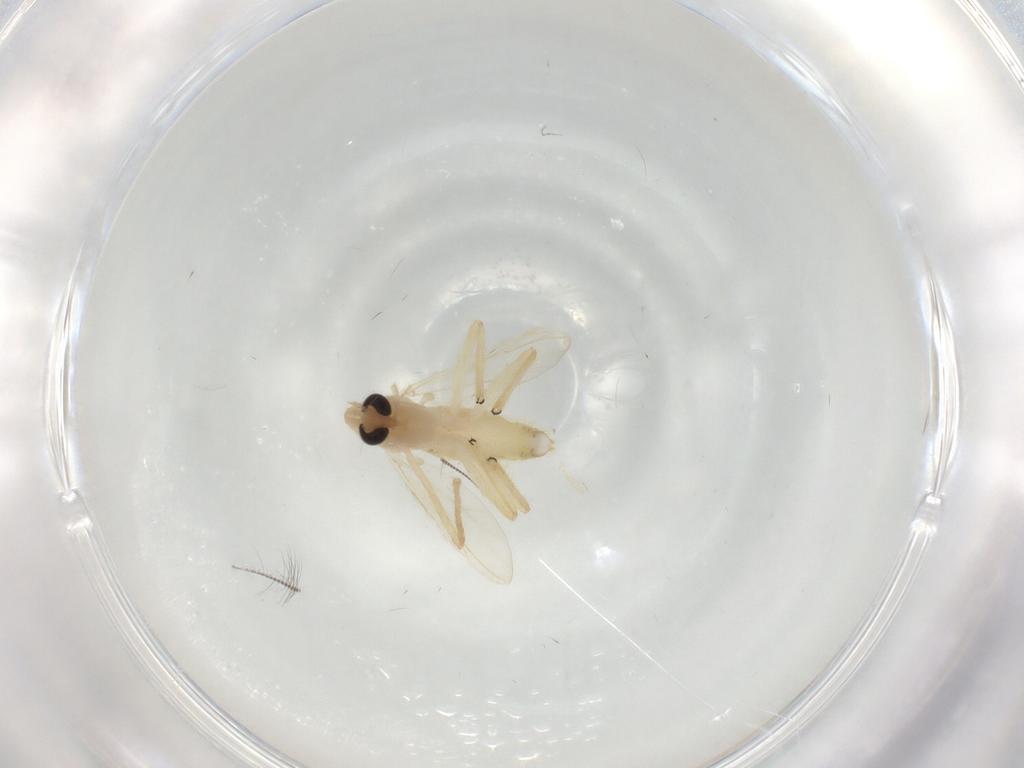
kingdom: Animalia
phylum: Arthropoda
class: Insecta
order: Diptera
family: Chironomidae
